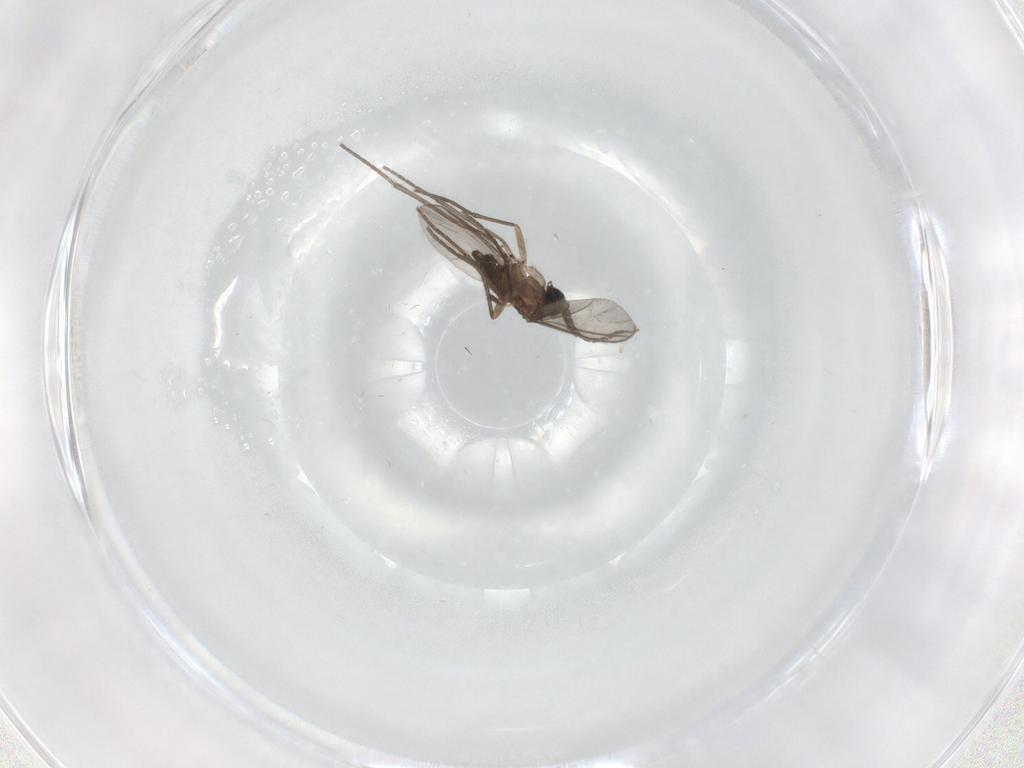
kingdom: Animalia
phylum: Arthropoda
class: Insecta
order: Diptera
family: Sciaridae
